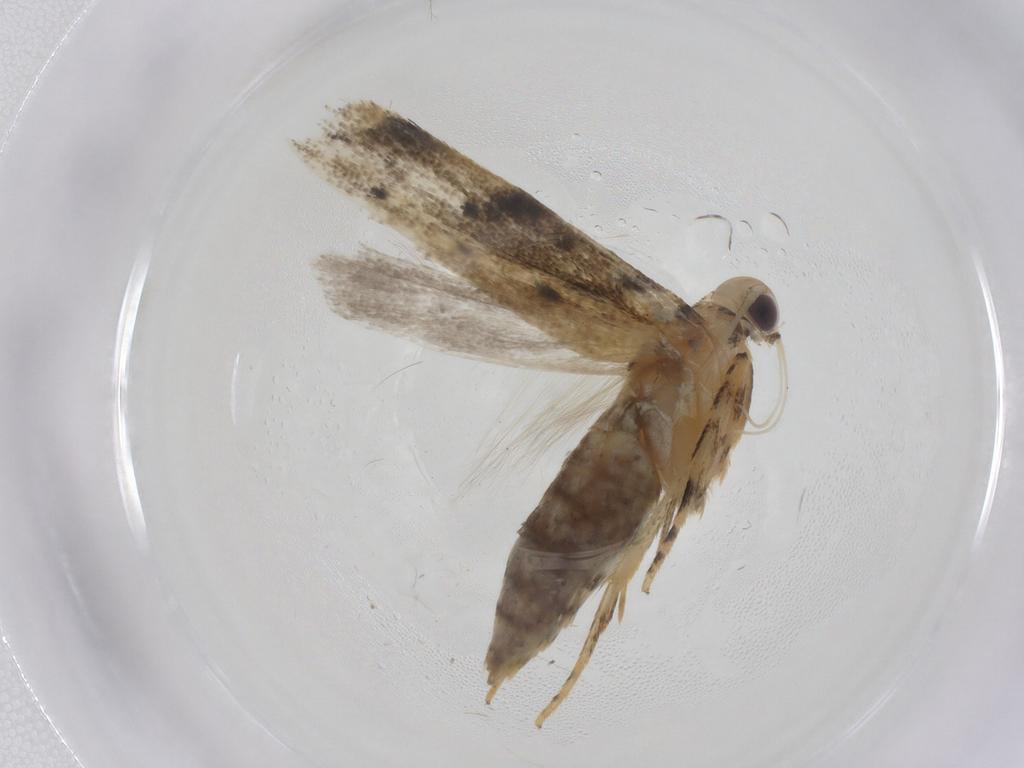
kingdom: Animalia
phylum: Arthropoda
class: Insecta
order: Lepidoptera
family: Gelechiidae
